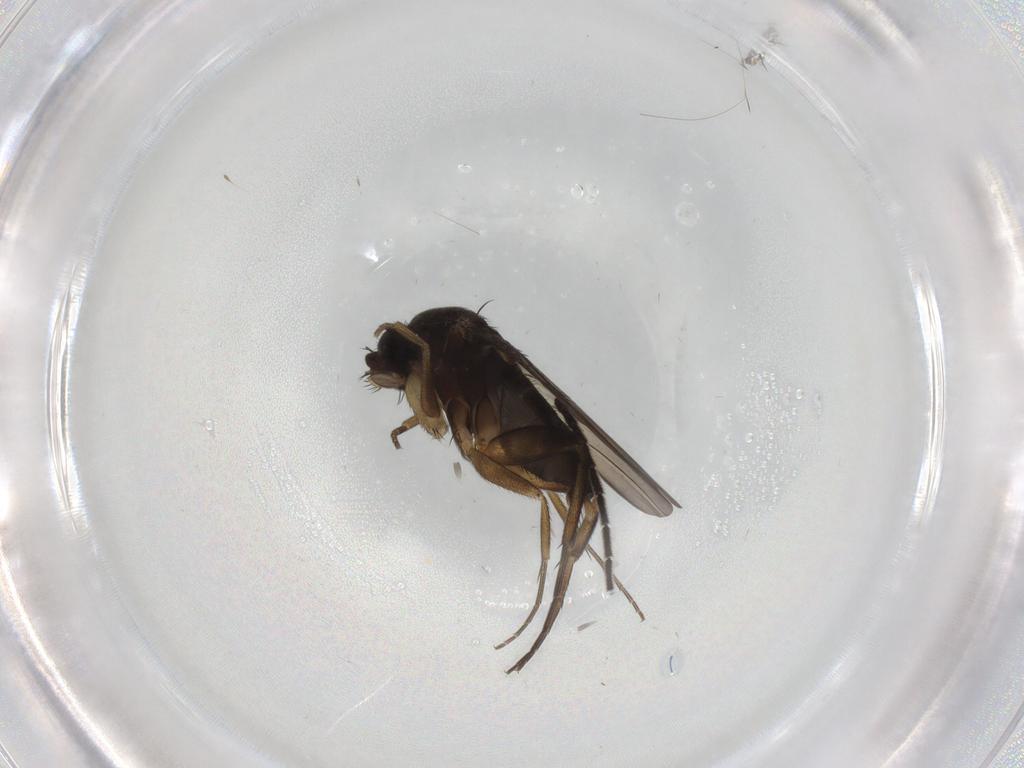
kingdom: Animalia
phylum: Arthropoda
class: Insecta
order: Diptera
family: Phoridae
